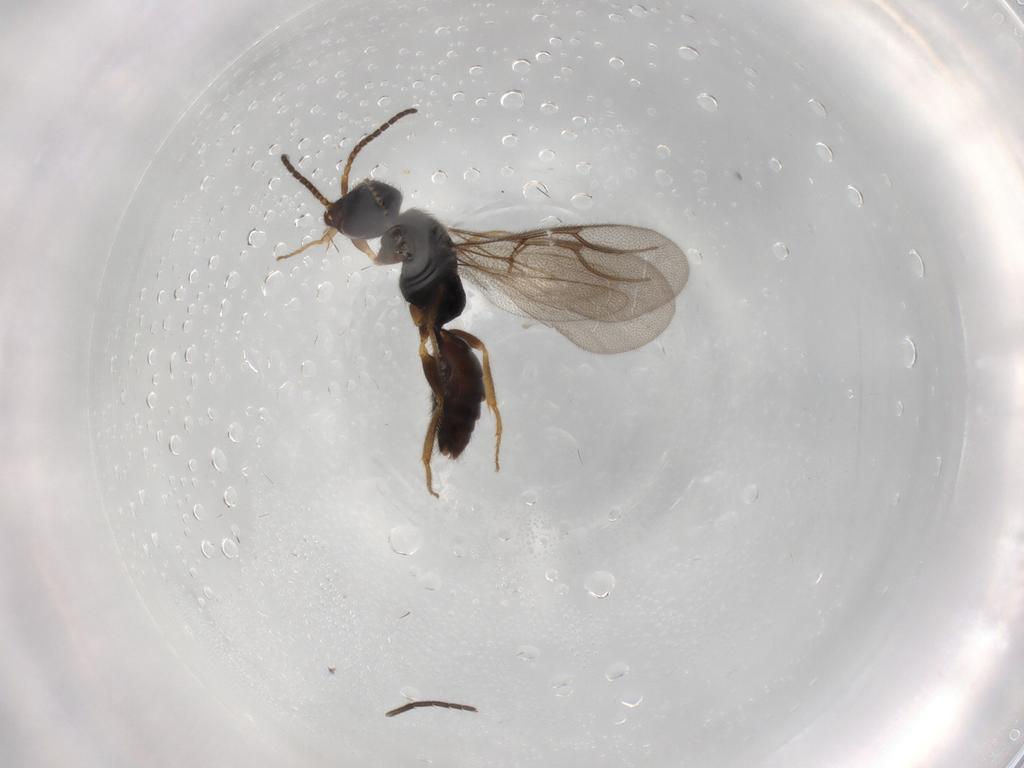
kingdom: Animalia
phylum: Arthropoda
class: Insecta
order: Hymenoptera
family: Bethylidae
